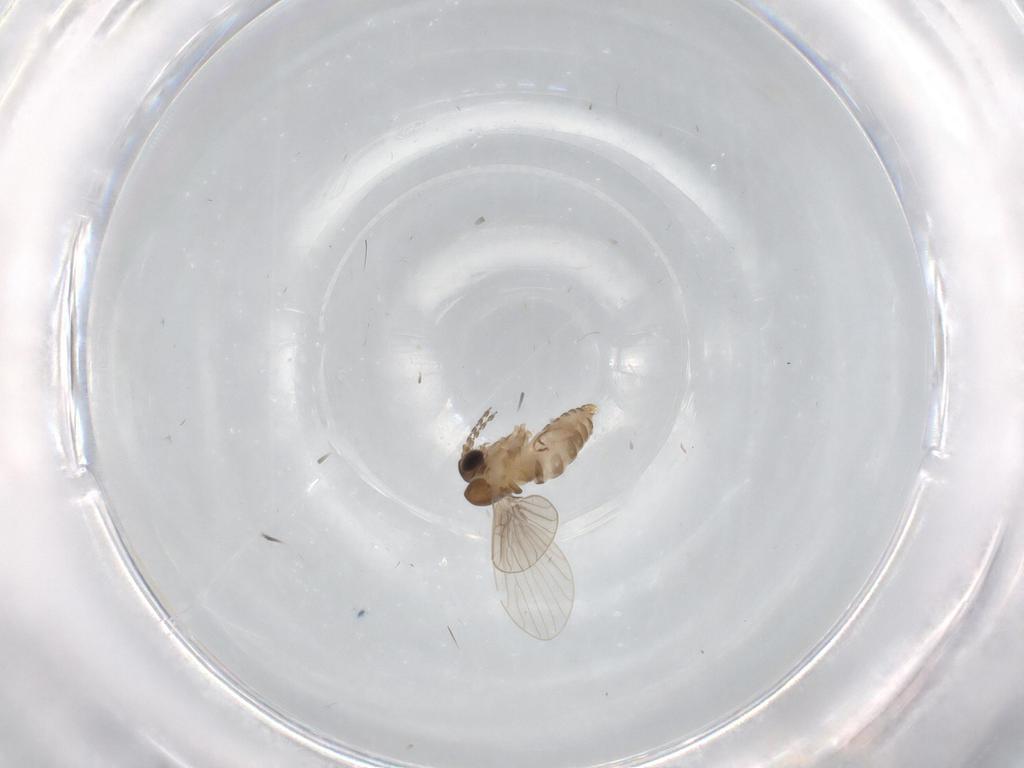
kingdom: Animalia
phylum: Arthropoda
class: Insecta
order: Diptera
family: Psychodidae
